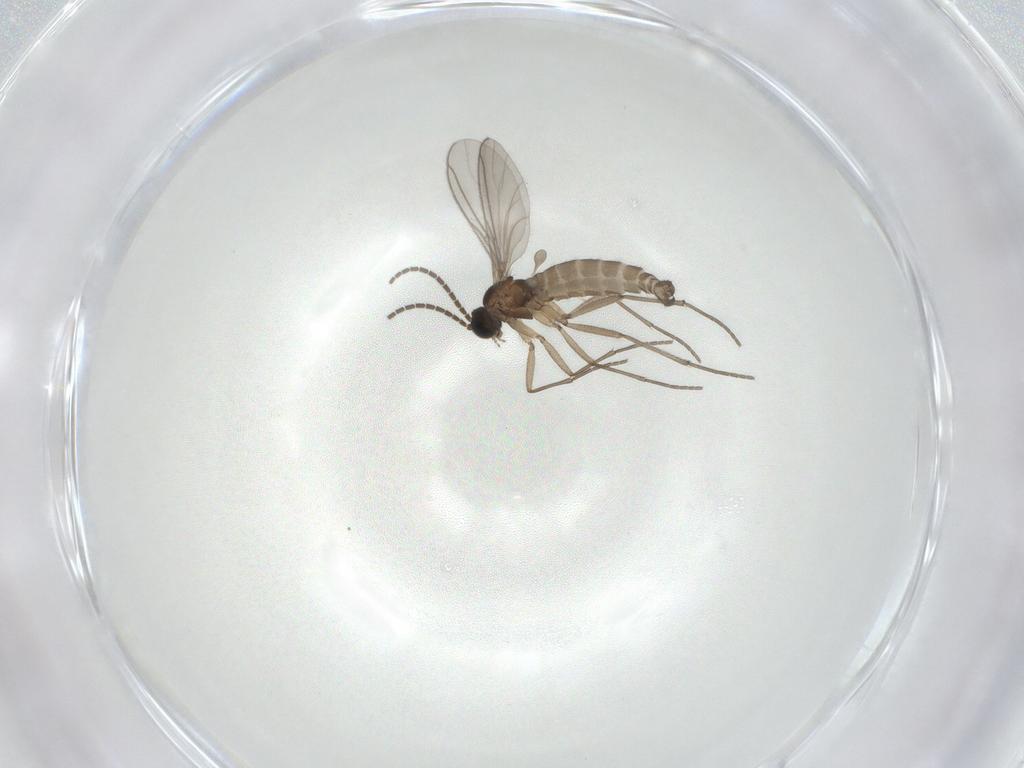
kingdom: Animalia
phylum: Arthropoda
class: Insecta
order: Diptera
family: Sciaridae
